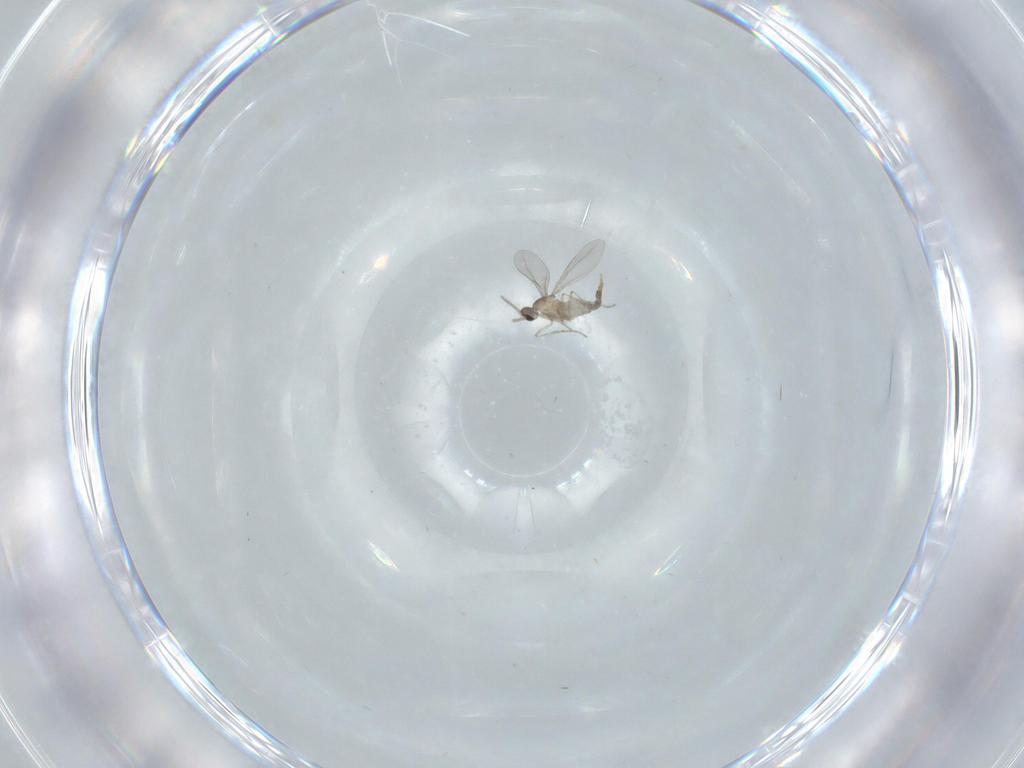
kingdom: Animalia
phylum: Arthropoda
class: Insecta
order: Diptera
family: Cecidomyiidae
